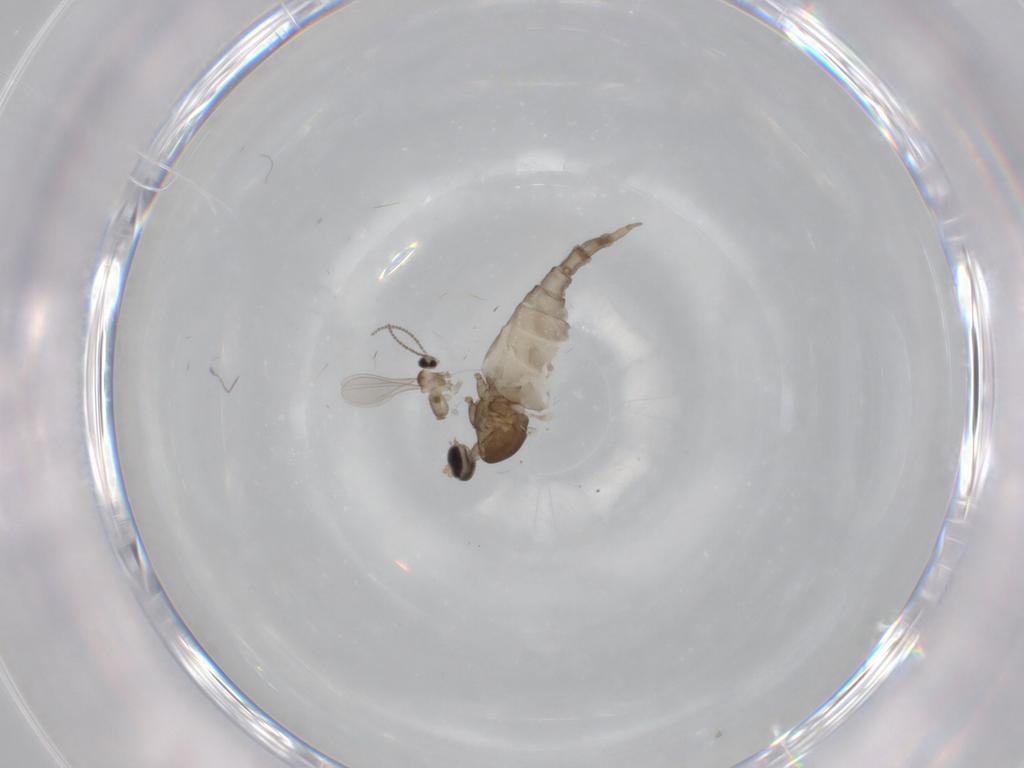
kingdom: Animalia
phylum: Arthropoda
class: Insecta
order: Diptera
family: Cecidomyiidae
